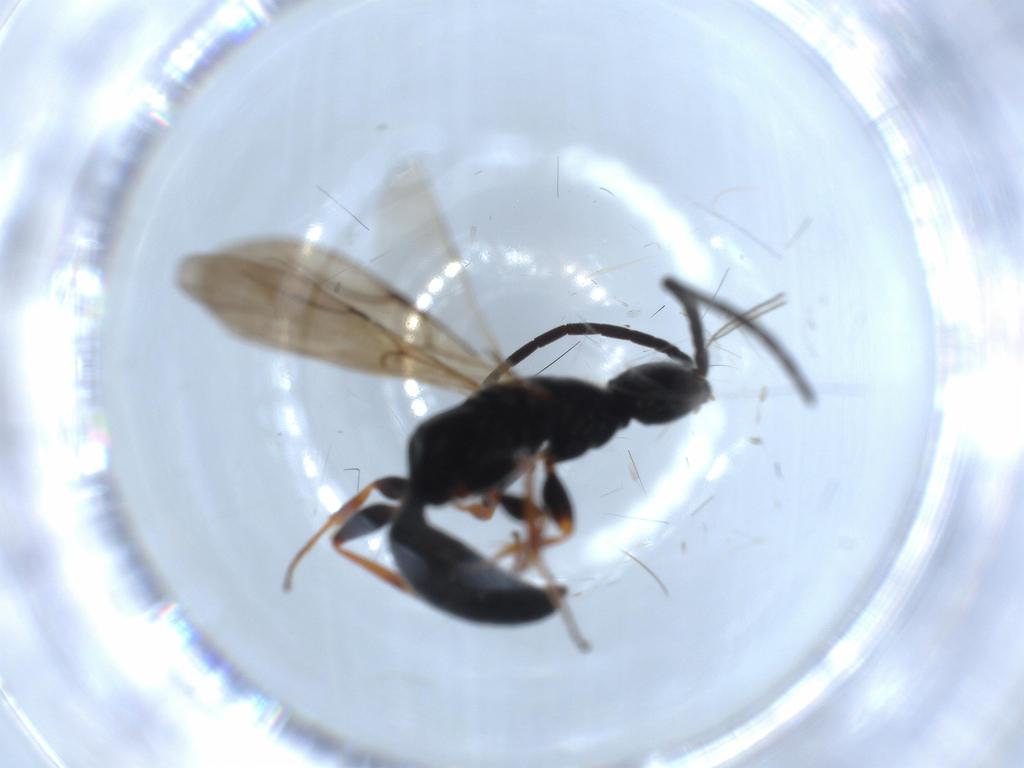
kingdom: Animalia
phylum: Arthropoda
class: Insecta
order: Hymenoptera
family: Bethylidae
